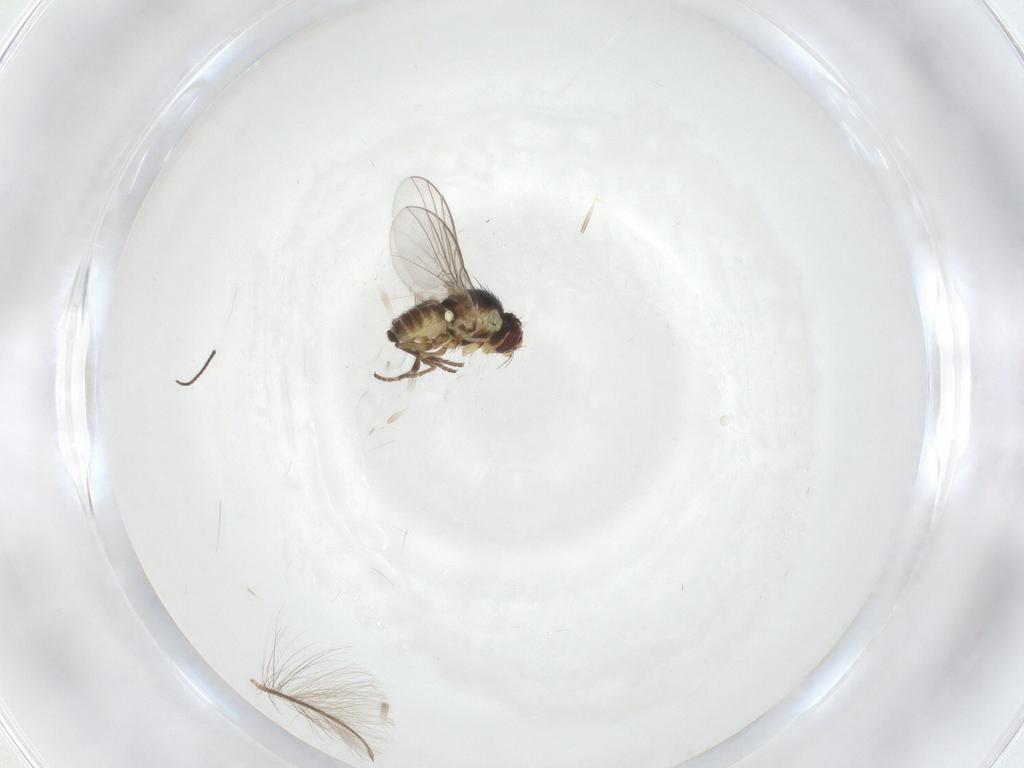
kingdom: Animalia
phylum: Arthropoda
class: Insecta
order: Diptera
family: Agromyzidae
